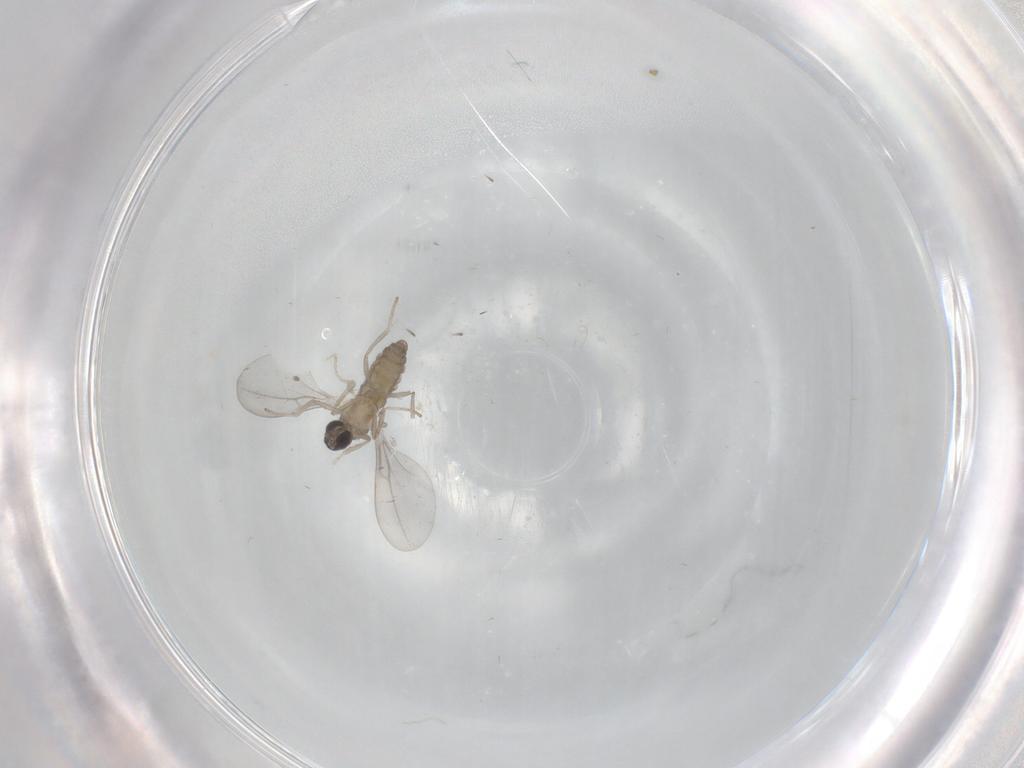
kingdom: Animalia
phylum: Arthropoda
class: Insecta
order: Diptera
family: Cecidomyiidae
